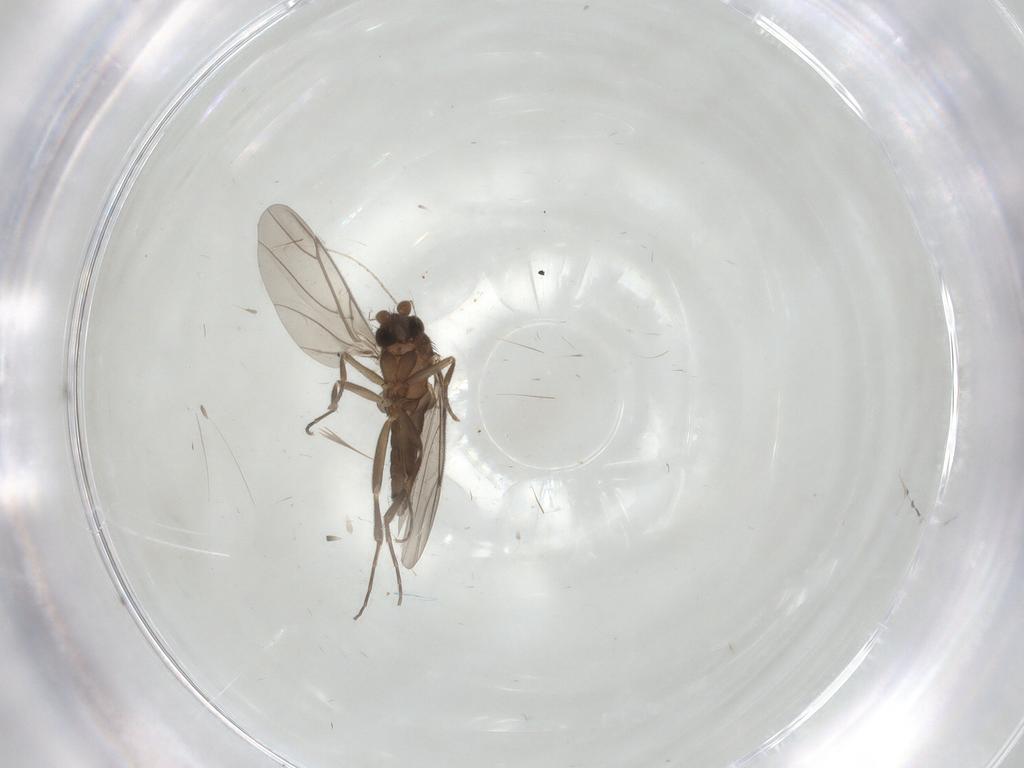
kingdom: Animalia
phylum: Arthropoda
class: Insecta
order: Diptera
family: Cecidomyiidae
